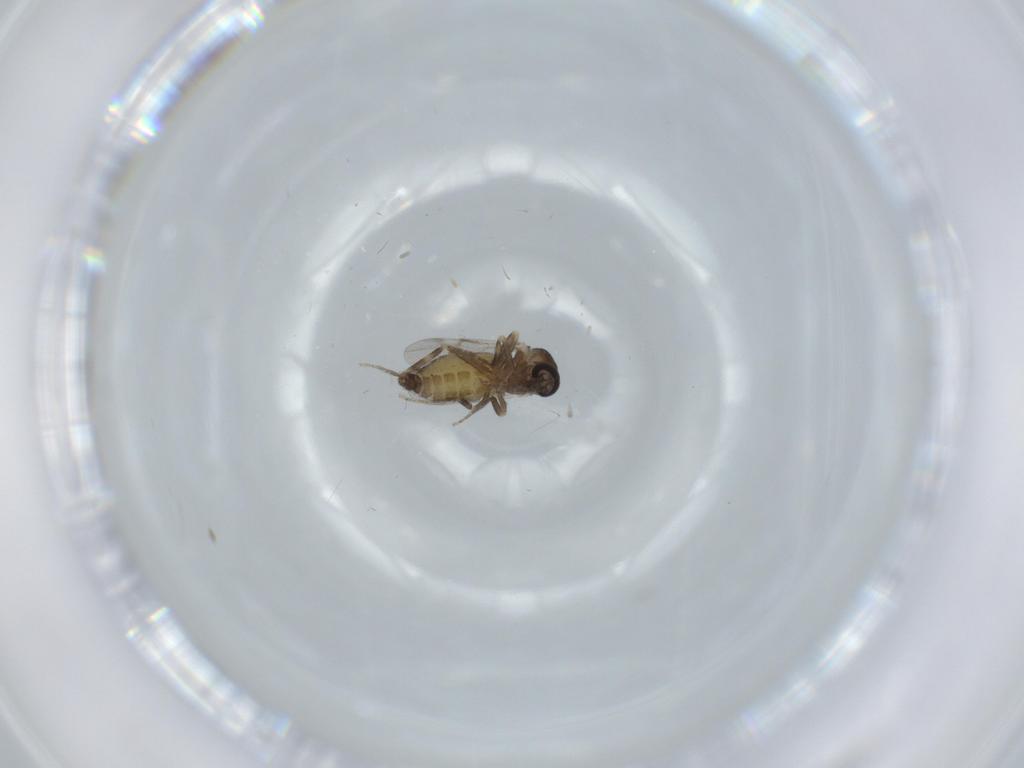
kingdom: Animalia
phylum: Arthropoda
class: Insecta
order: Diptera
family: Ceratopogonidae
